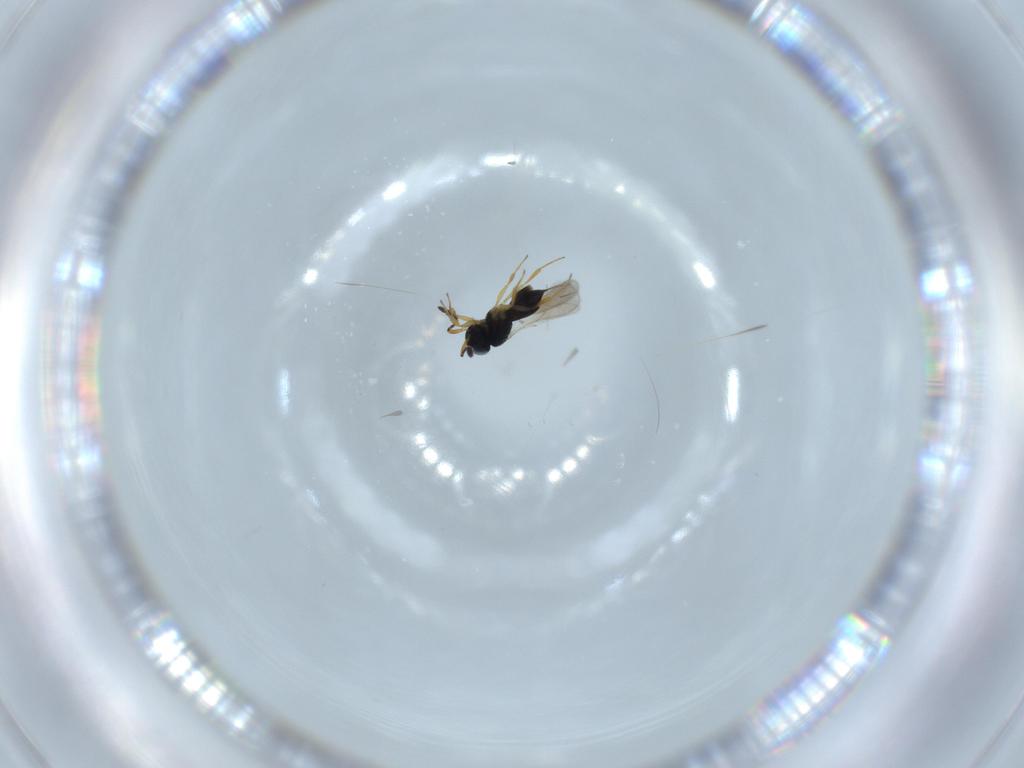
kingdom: Animalia
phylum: Arthropoda
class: Insecta
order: Hymenoptera
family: Scelionidae
